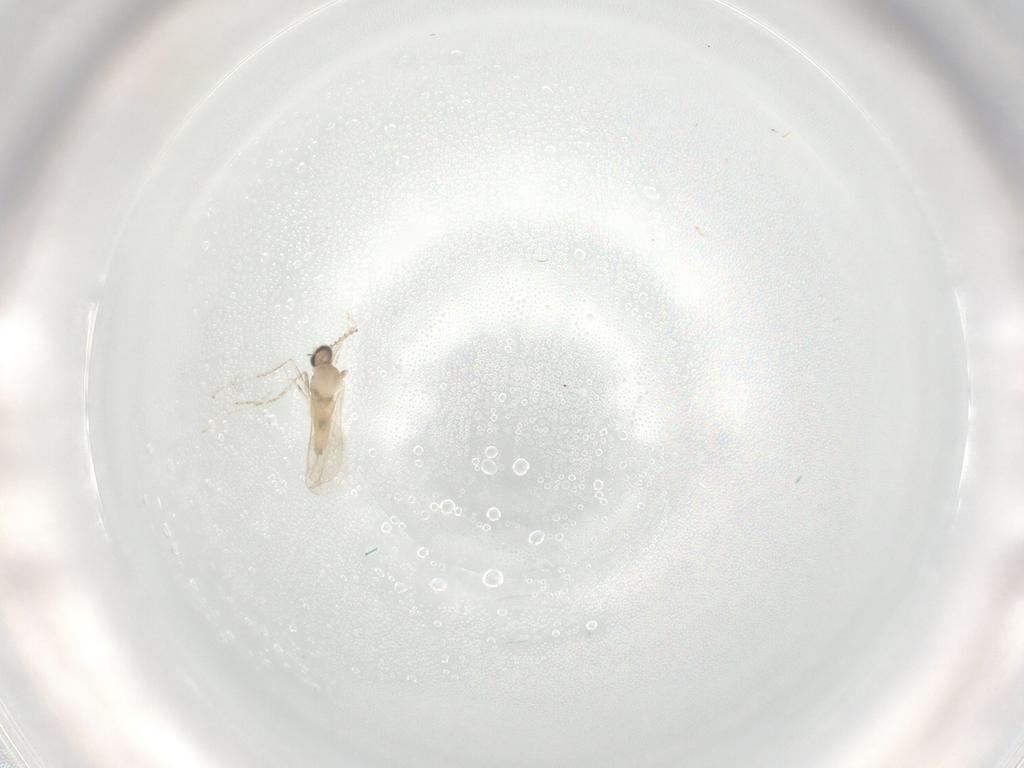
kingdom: Animalia
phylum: Arthropoda
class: Insecta
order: Diptera
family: Cecidomyiidae
